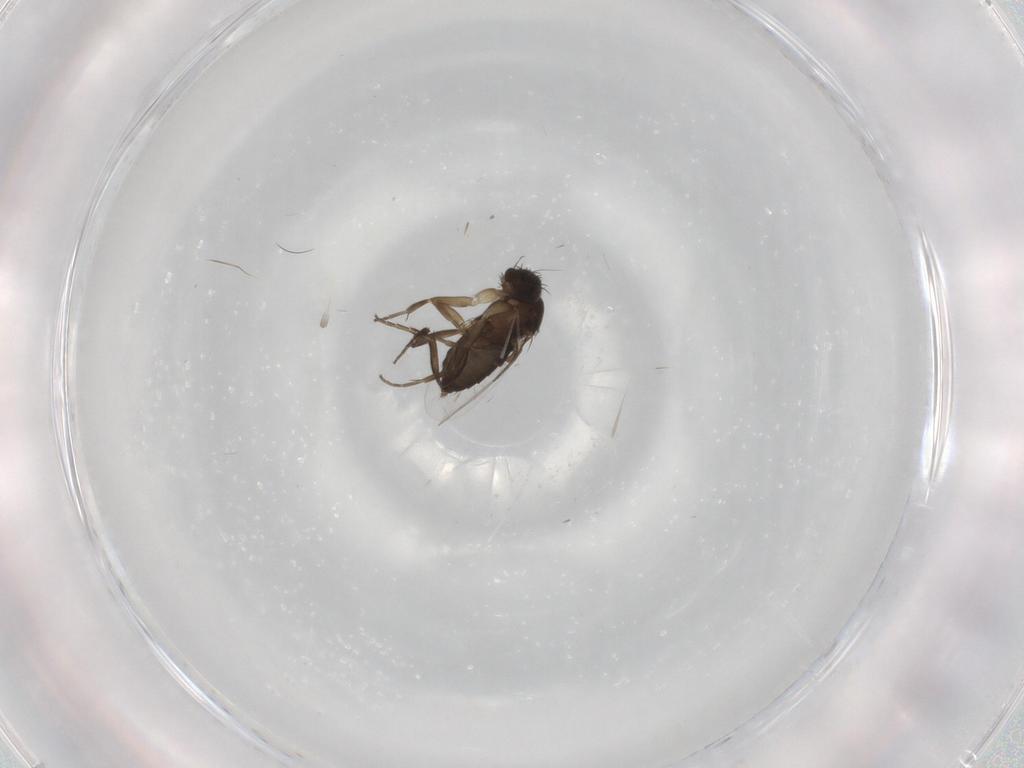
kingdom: Animalia
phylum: Arthropoda
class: Insecta
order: Diptera
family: Phoridae
